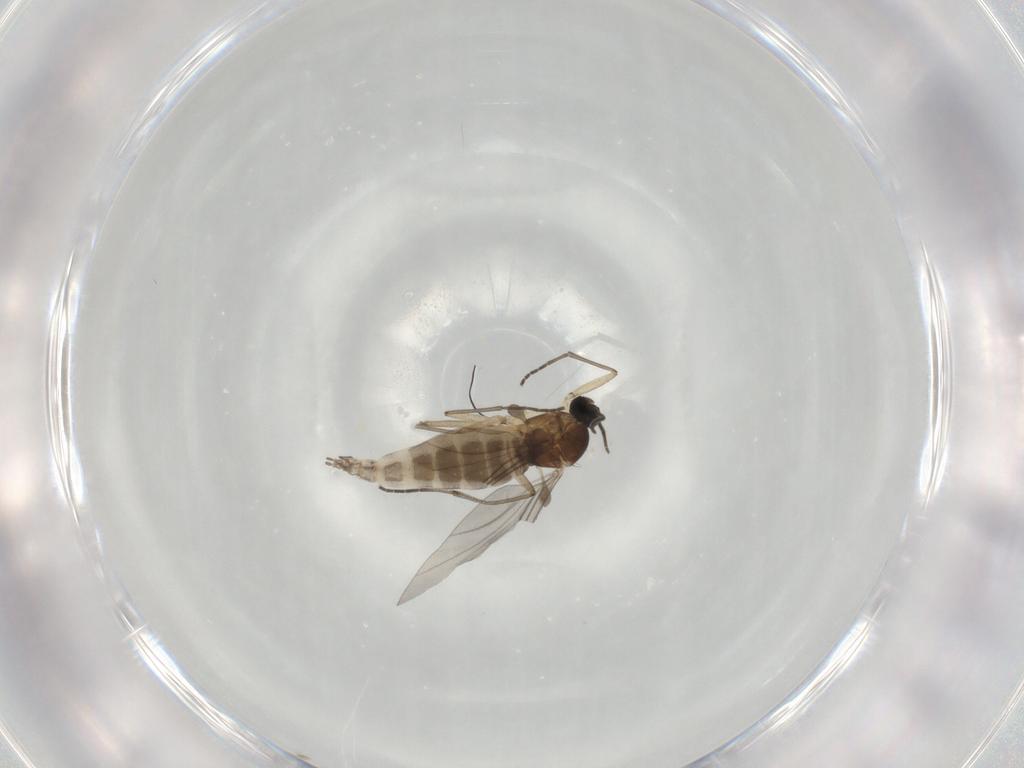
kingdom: Animalia
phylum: Arthropoda
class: Insecta
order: Diptera
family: Sciaridae
